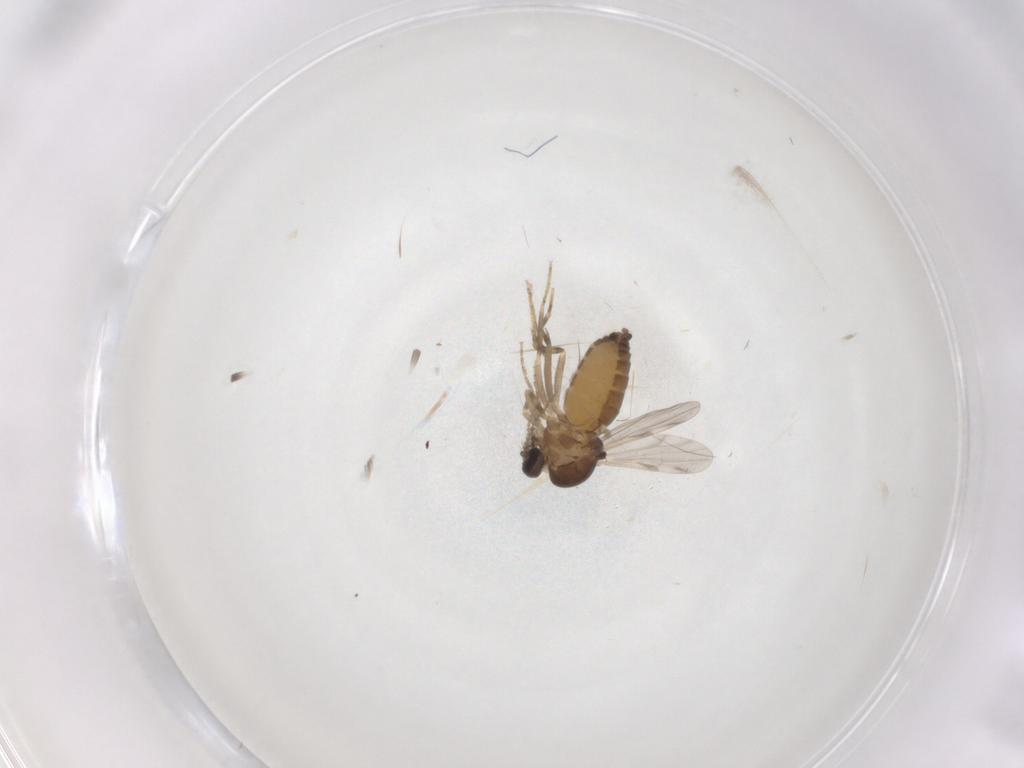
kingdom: Animalia
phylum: Arthropoda
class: Insecta
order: Diptera
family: Ceratopogonidae
